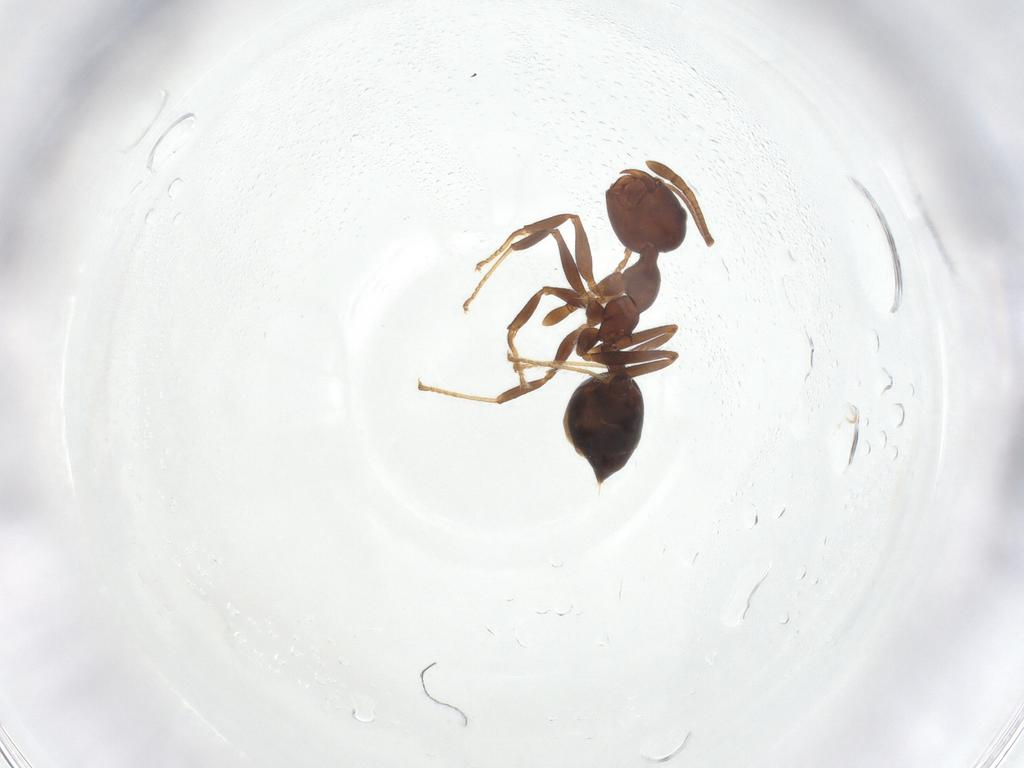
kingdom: Animalia
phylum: Arthropoda
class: Insecta
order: Hymenoptera
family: Formicidae
